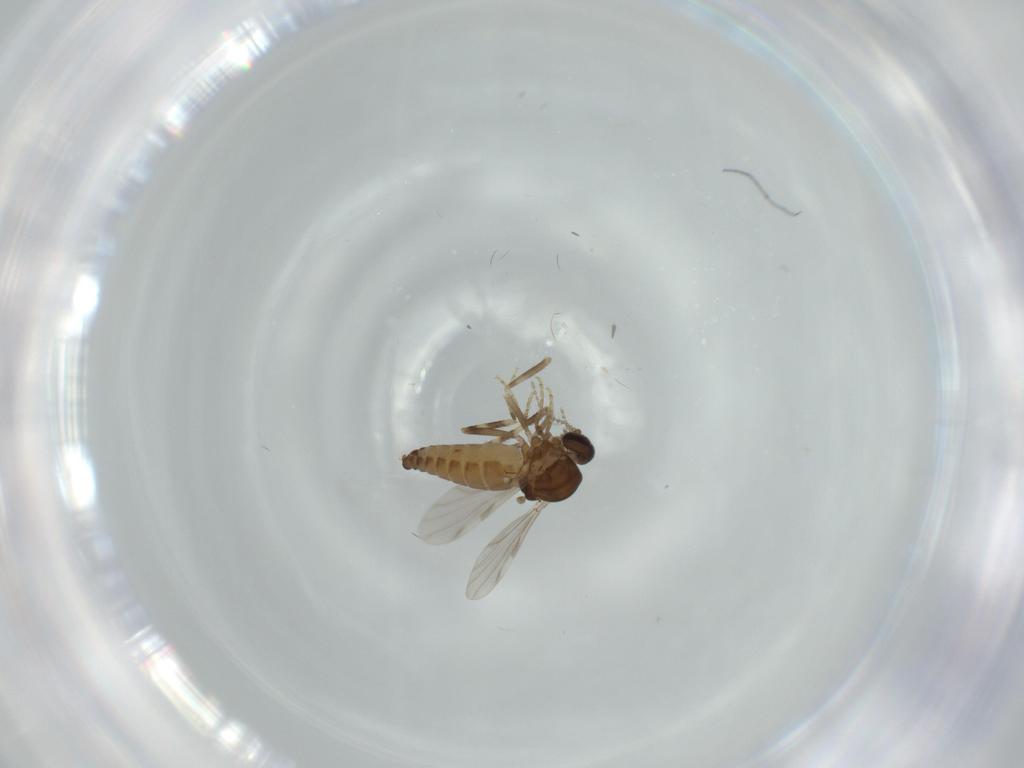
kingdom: Animalia
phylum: Arthropoda
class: Insecta
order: Diptera
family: Ceratopogonidae
